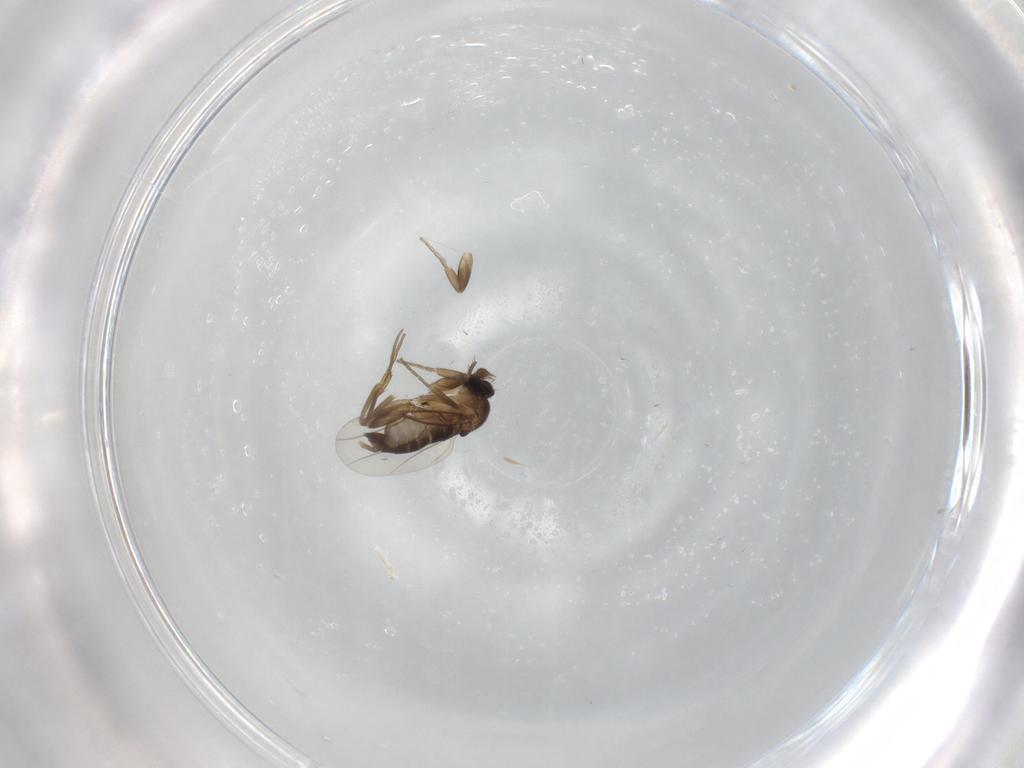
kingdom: Animalia
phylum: Arthropoda
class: Insecta
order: Diptera
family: Phoridae
